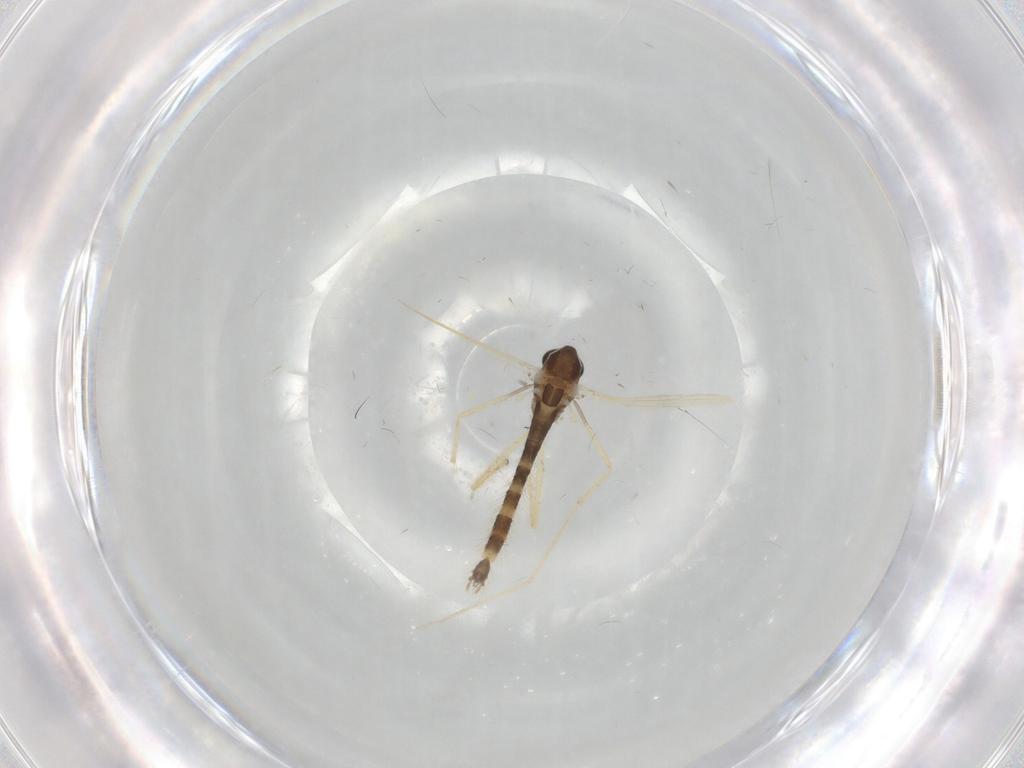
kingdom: Animalia
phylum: Arthropoda
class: Insecta
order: Diptera
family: Chironomidae
